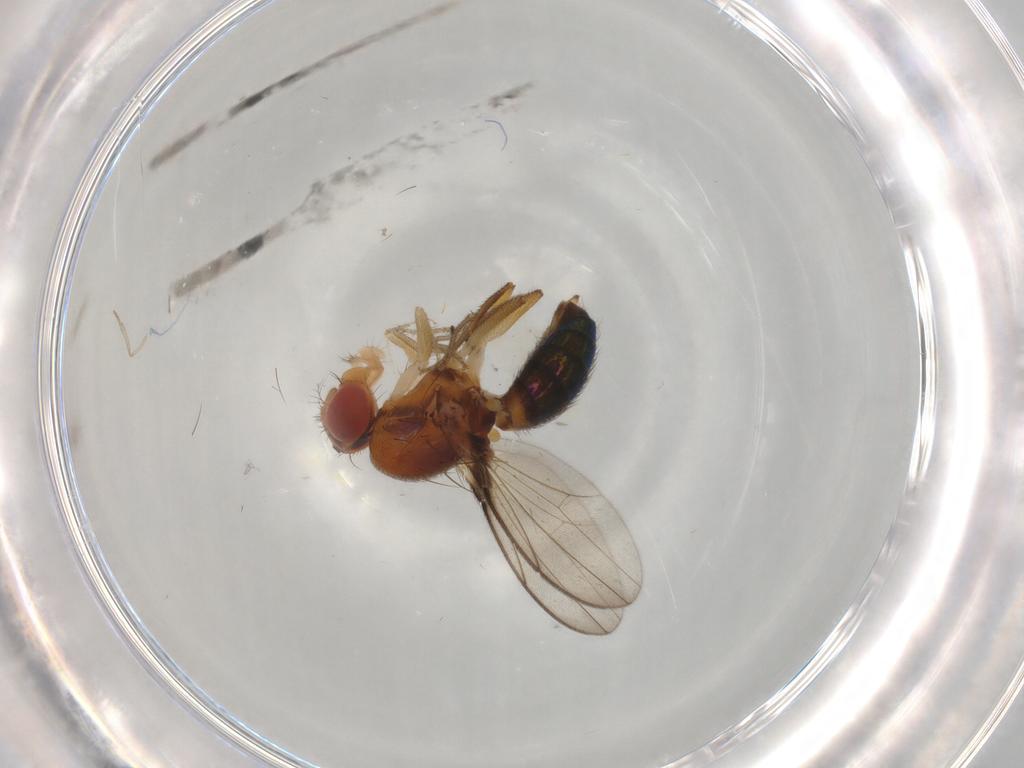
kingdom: Animalia
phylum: Arthropoda
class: Insecta
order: Diptera
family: Drosophilidae
